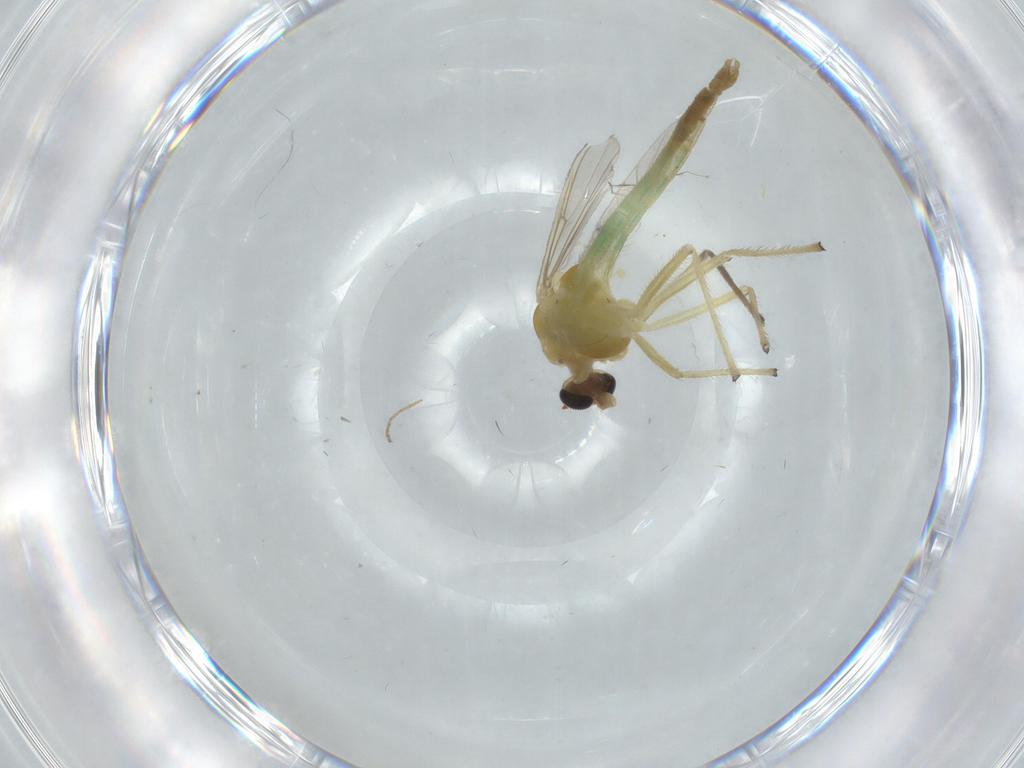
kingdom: Animalia
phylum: Arthropoda
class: Insecta
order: Diptera
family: Chironomidae
